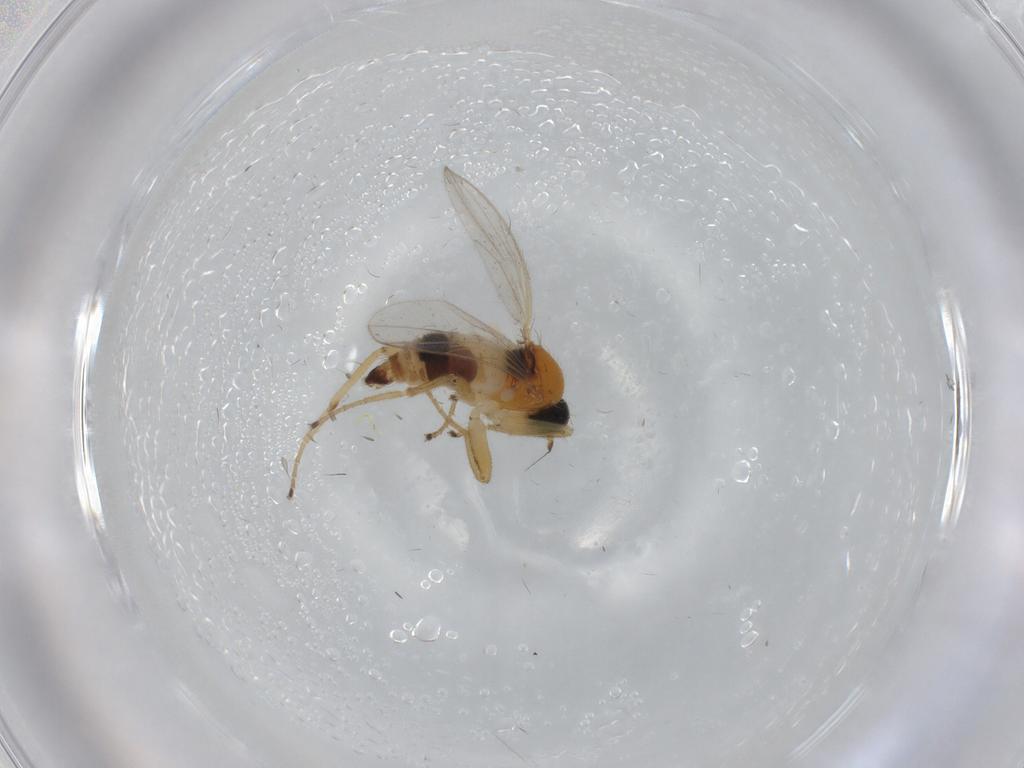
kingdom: Animalia
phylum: Arthropoda
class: Insecta
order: Diptera
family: Hybotidae
